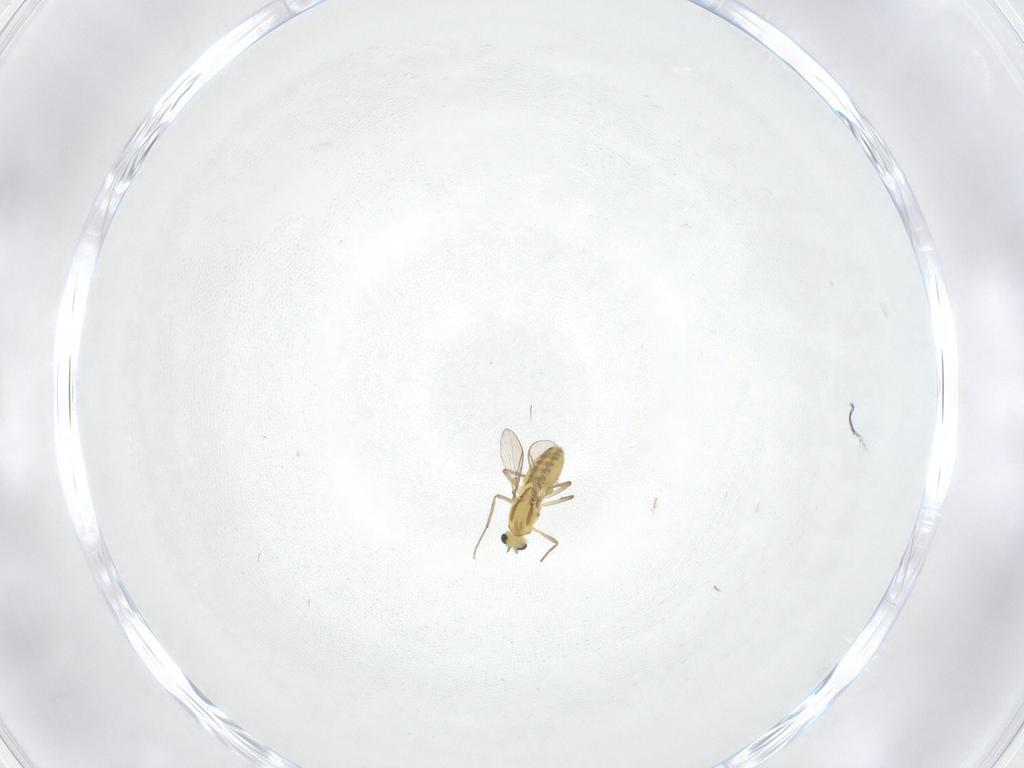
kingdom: Animalia
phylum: Arthropoda
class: Insecta
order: Diptera
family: Chironomidae
